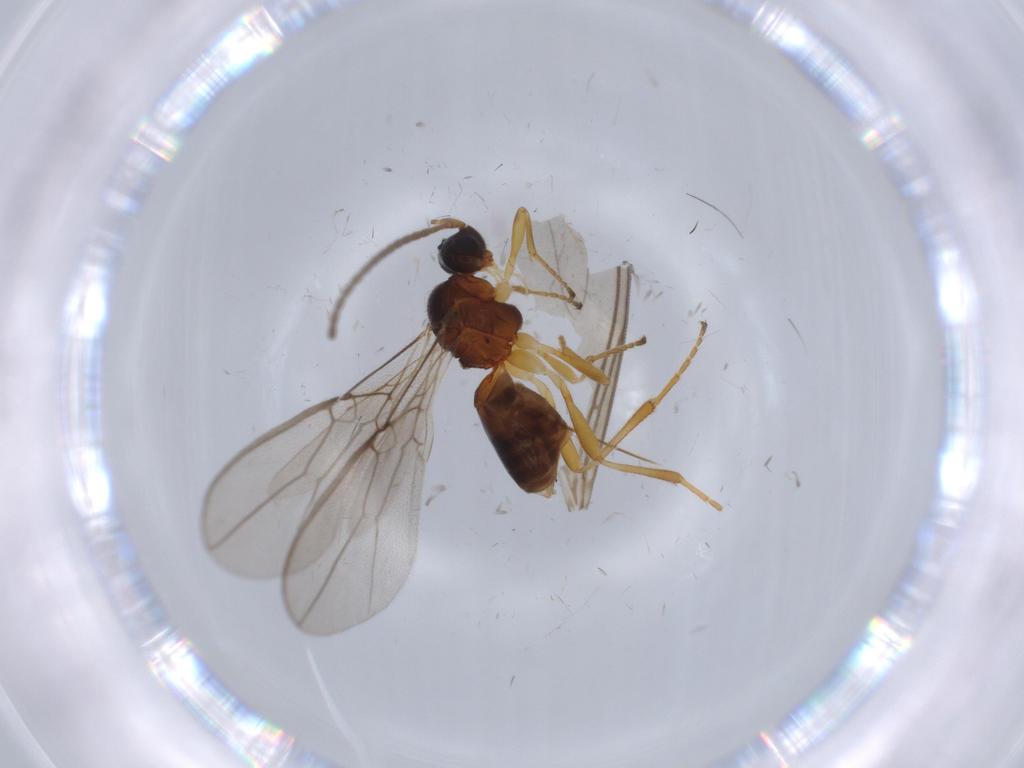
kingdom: Animalia
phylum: Arthropoda
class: Insecta
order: Hymenoptera
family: Braconidae
